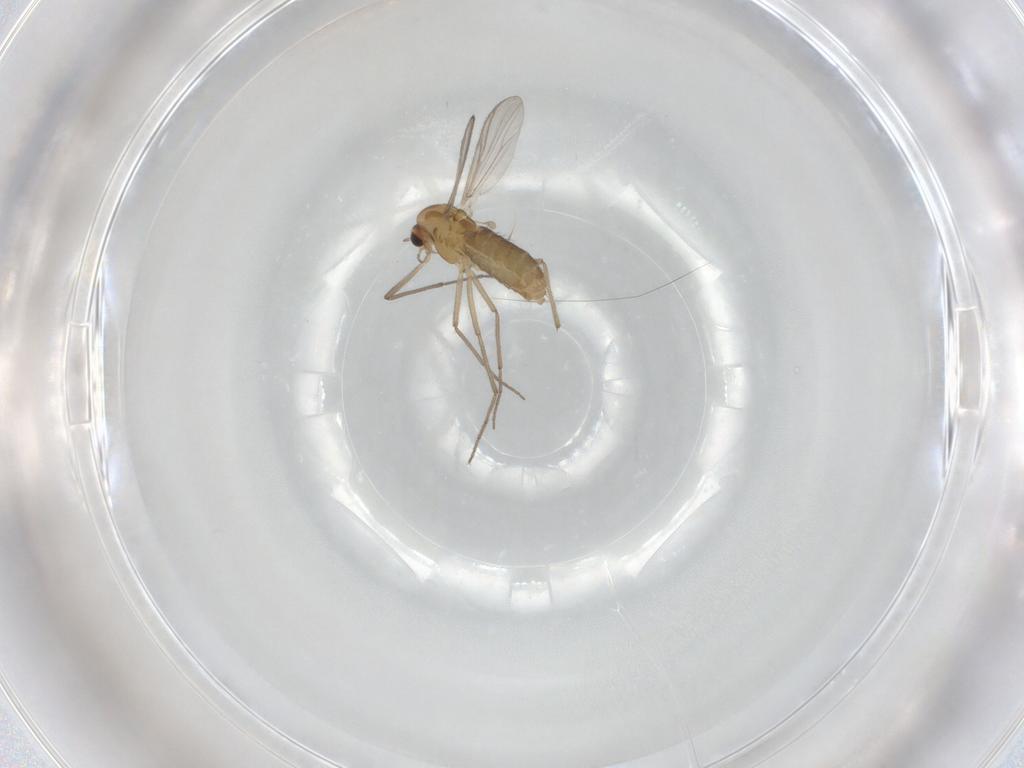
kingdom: Animalia
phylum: Arthropoda
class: Insecta
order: Diptera
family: Chironomidae
